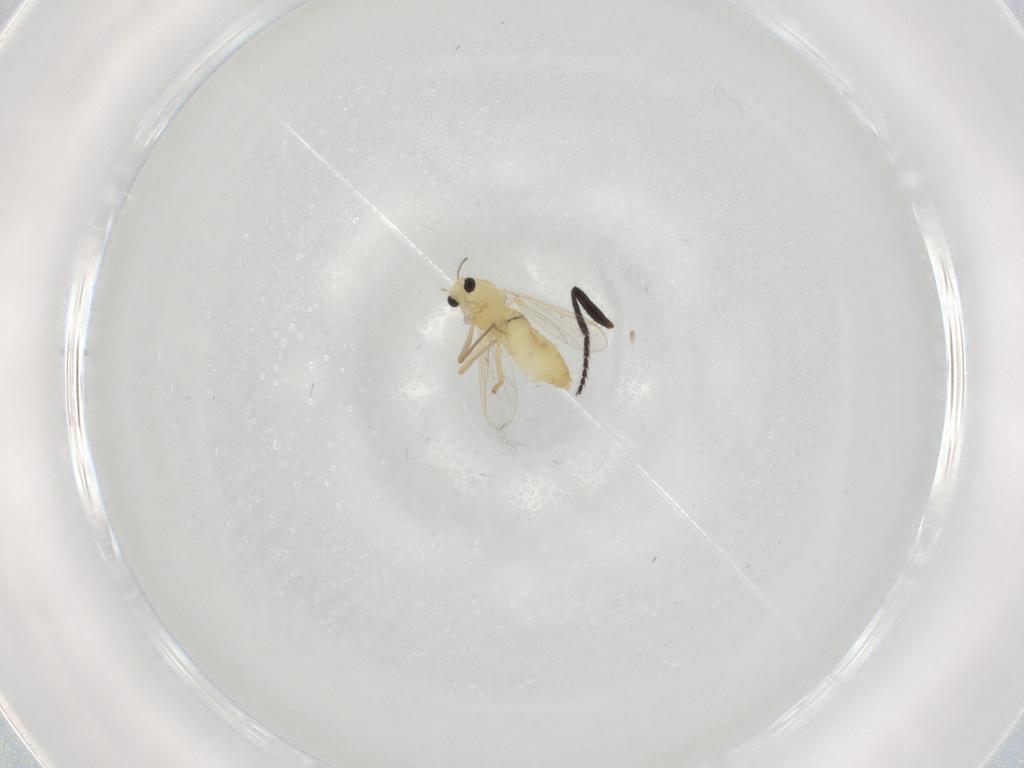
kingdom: Animalia
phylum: Arthropoda
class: Insecta
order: Diptera
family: Chironomidae
